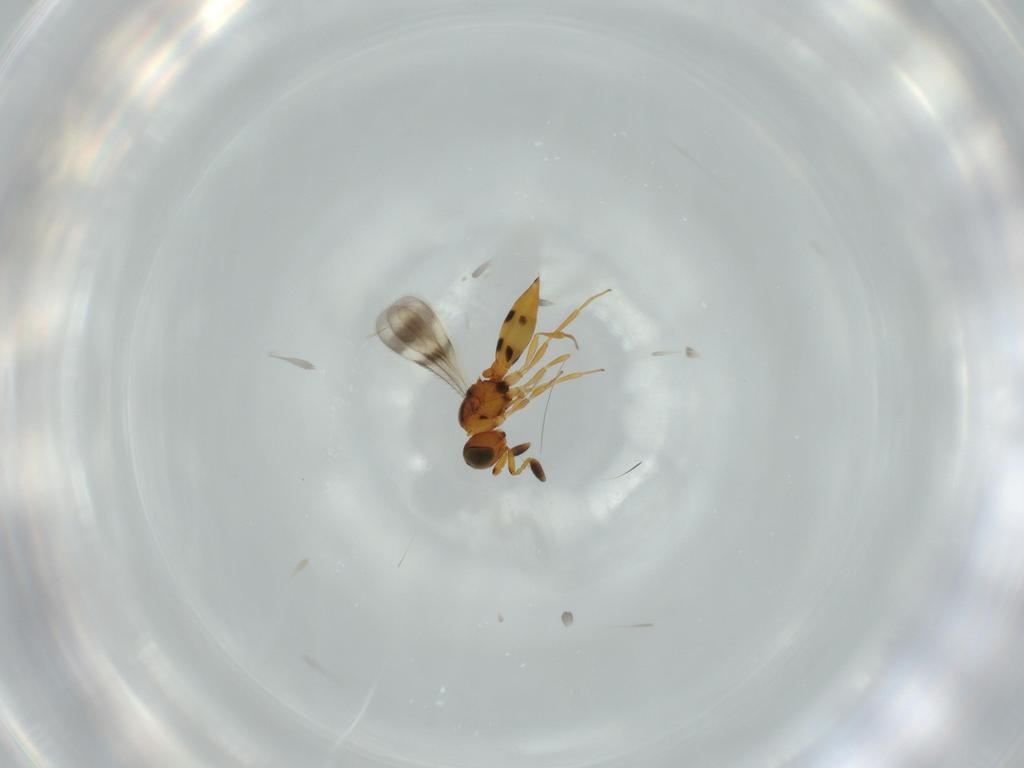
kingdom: Animalia
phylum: Arthropoda
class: Insecta
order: Hymenoptera
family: Scelionidae
